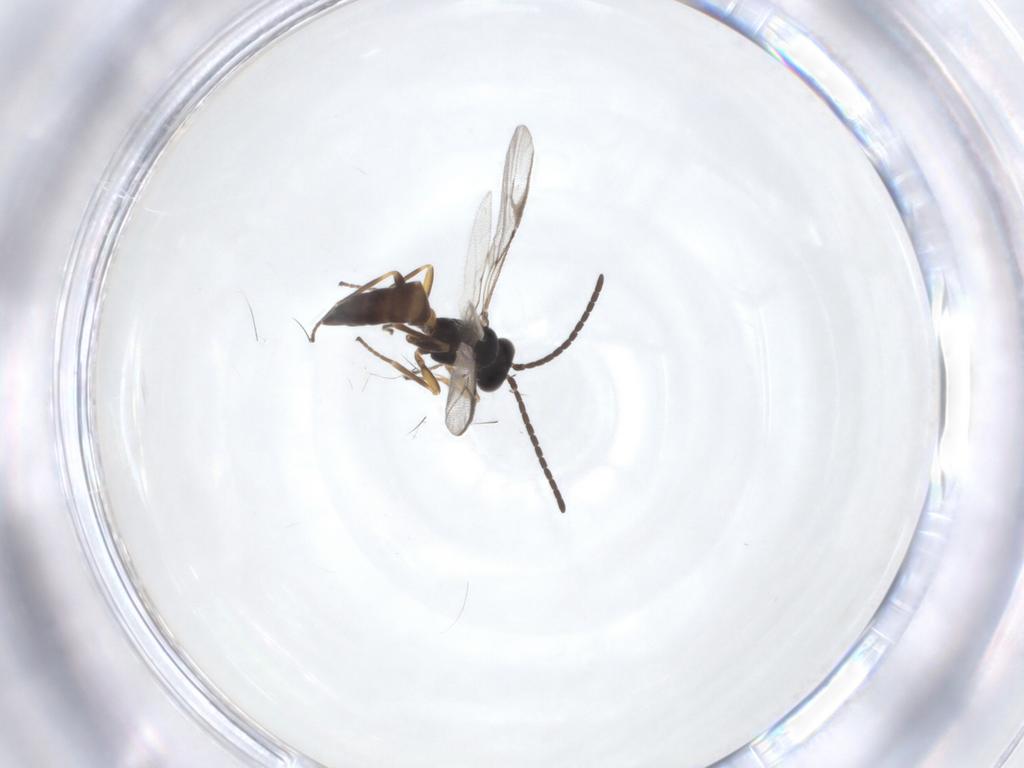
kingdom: Animalia
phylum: Arthropoda
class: Insecta
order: Hymenoptera
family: Braconidae
